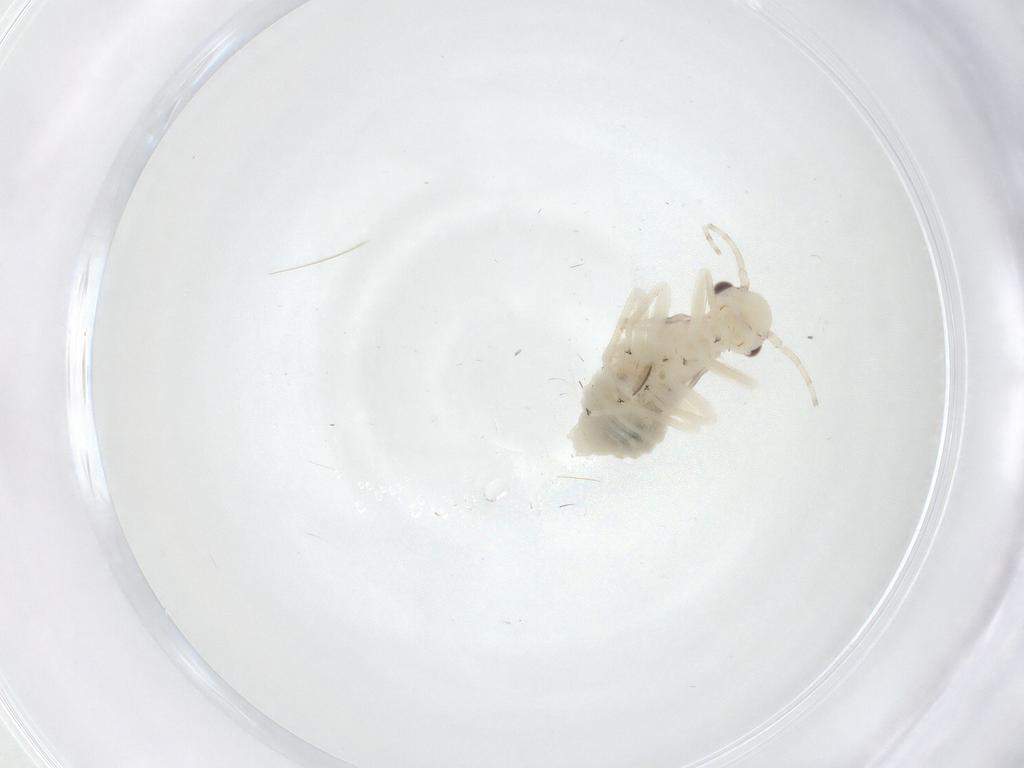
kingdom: Animalia
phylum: Arthropoda
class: Insecta
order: Psocodea
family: Amphipsocidae
